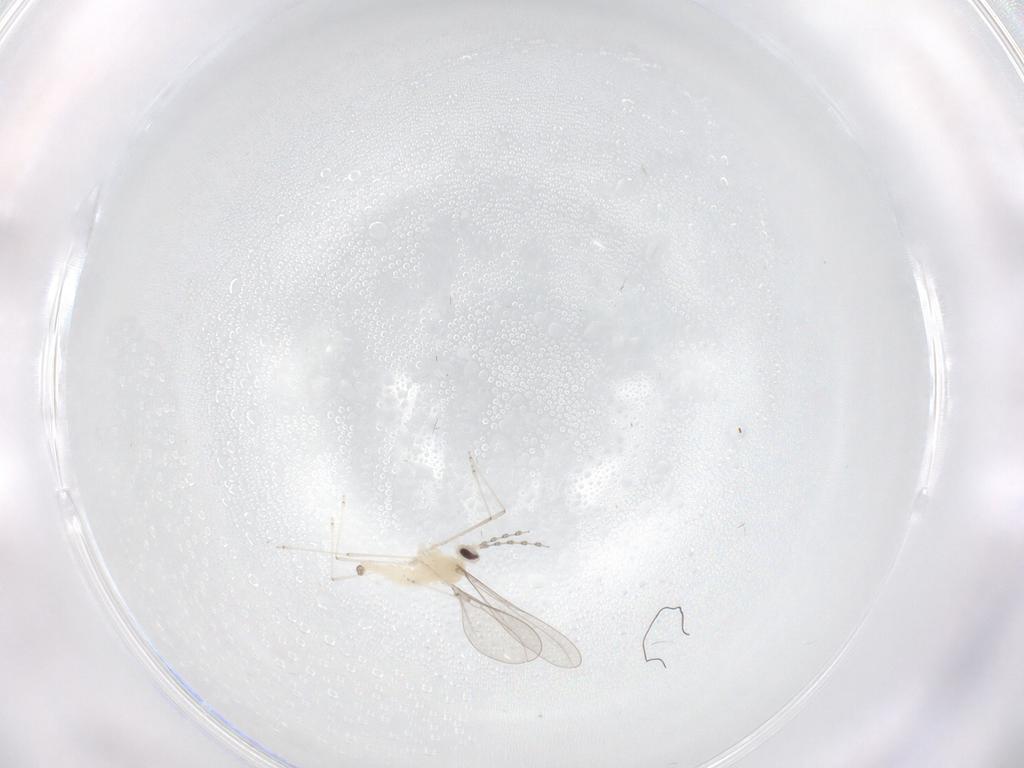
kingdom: Animalia
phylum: Arthropoda
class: Insecta
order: Diptera
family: Cecidomyiidae
